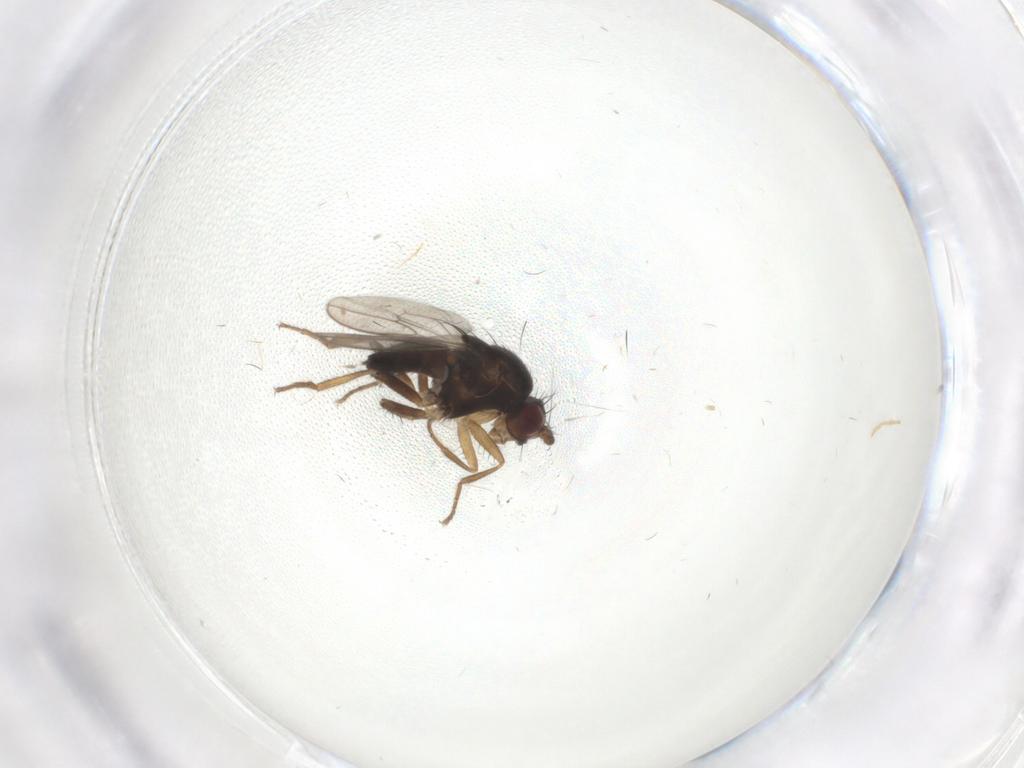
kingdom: Animalia
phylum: Arthropoda
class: Insecta
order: Diptera
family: Sphaeroceridae
